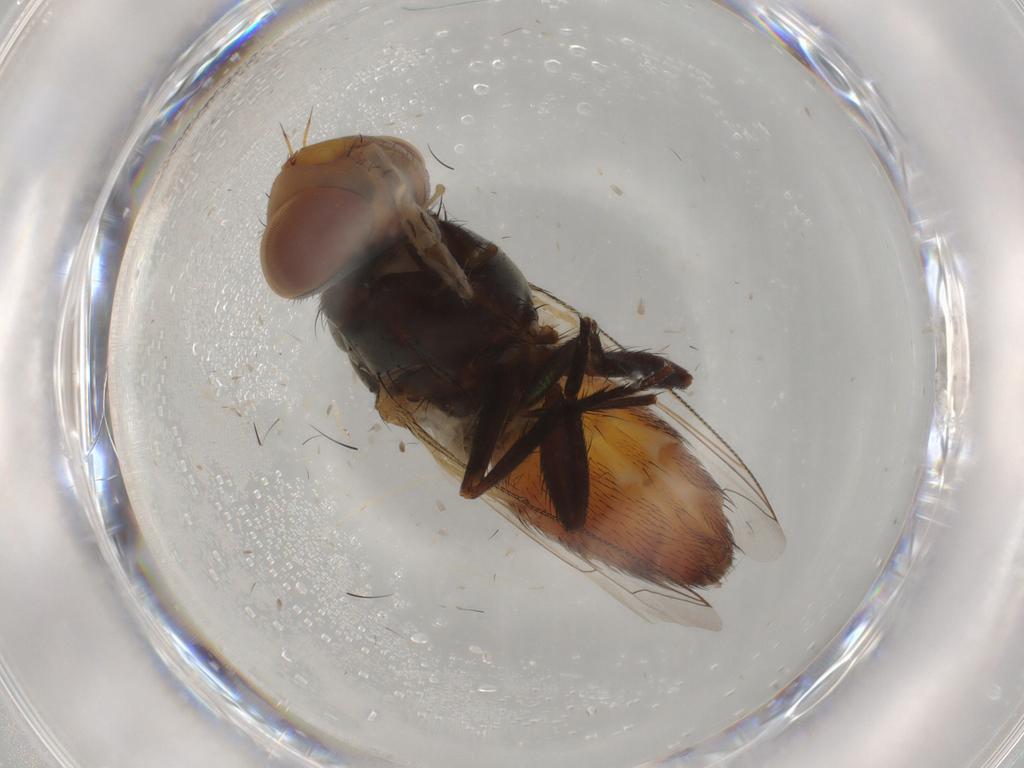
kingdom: Animalia
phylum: Arthropoda
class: Insecta
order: Diptera
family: Dolichopodidae
